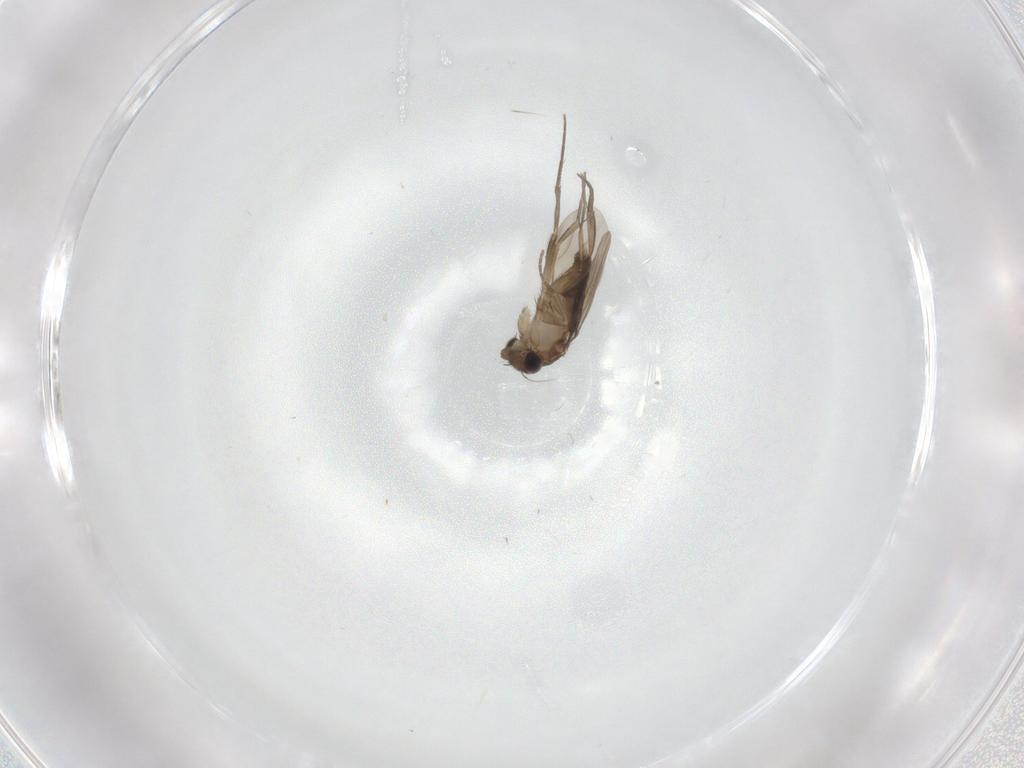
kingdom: Animalia
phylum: Arthropoda
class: Insecta
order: Diptera
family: Phoridae
